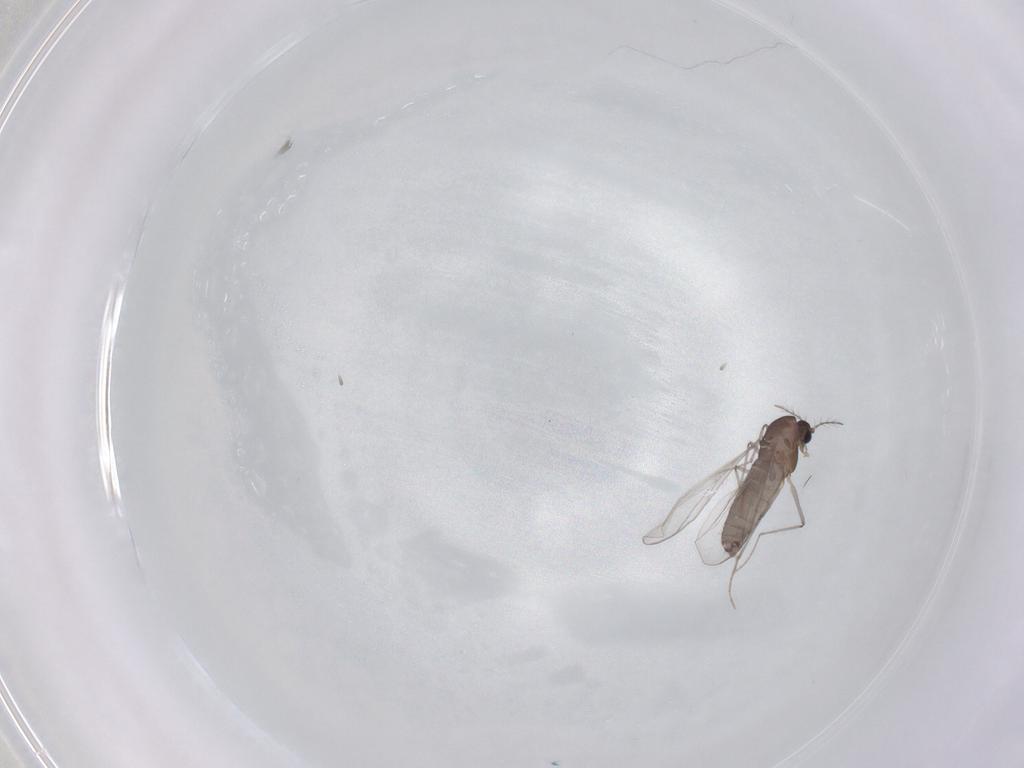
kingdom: Animalia
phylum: Arthropoda
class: Insecta
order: Diptera
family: Chironomidae
